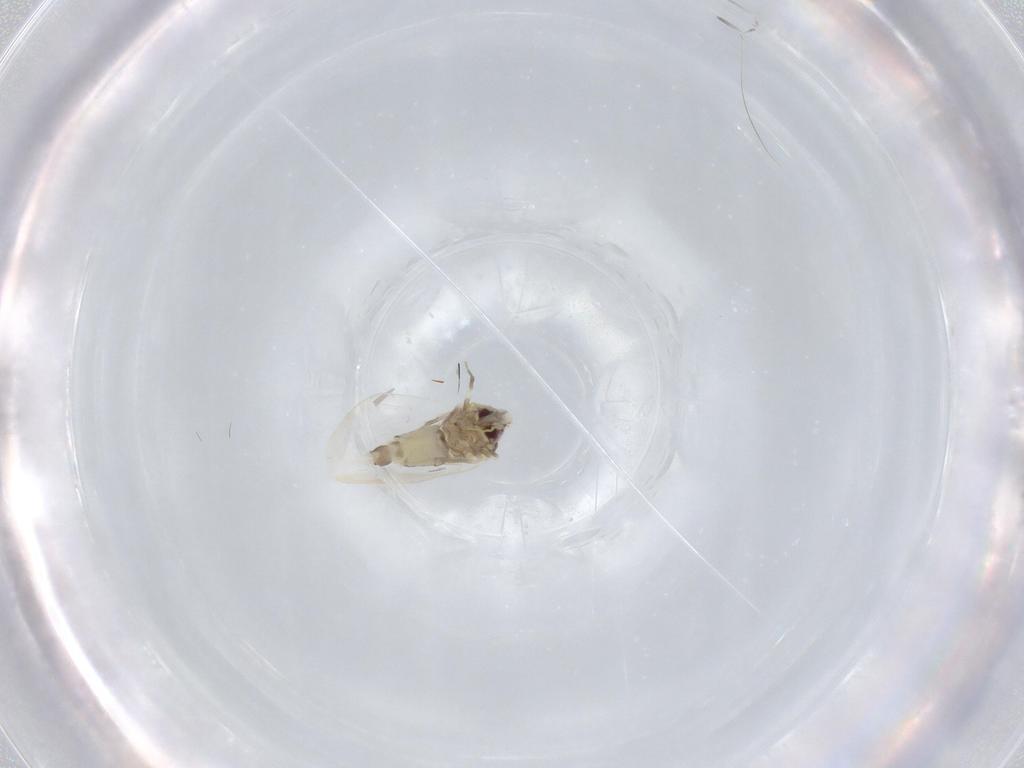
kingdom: Animalia
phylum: Arthropoda
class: Insecta
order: Hemiptera
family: Aleyrodidae
